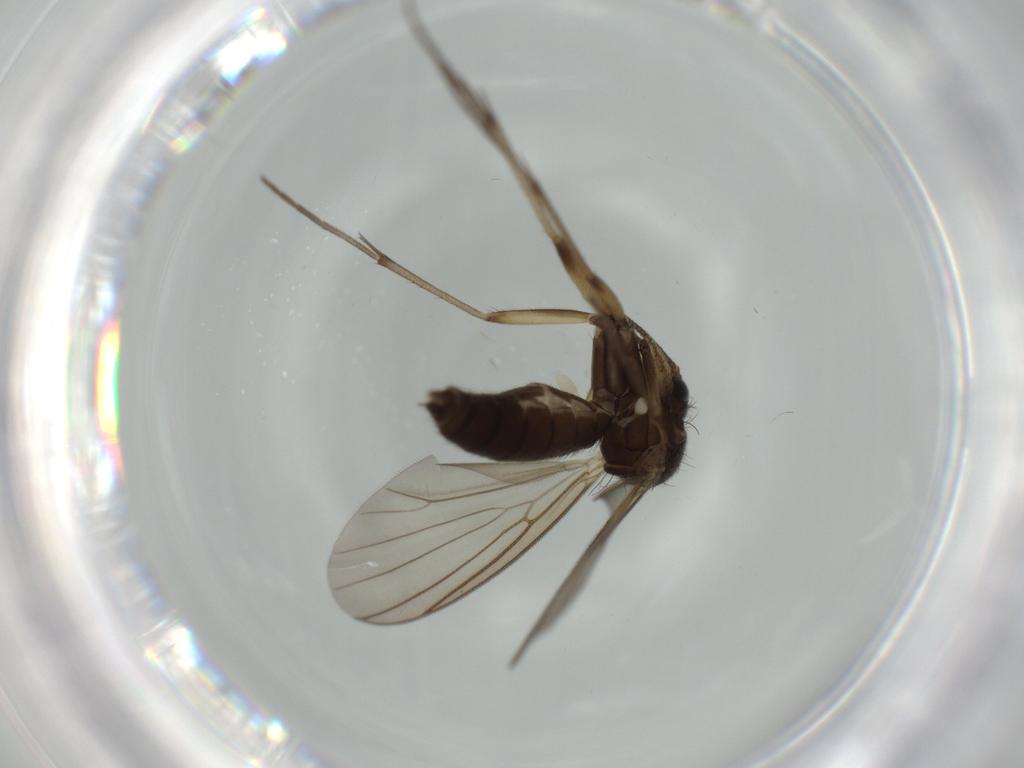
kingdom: Animalia
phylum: Arthropoda
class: Insecta
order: Diptera
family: Mycetophilidae
